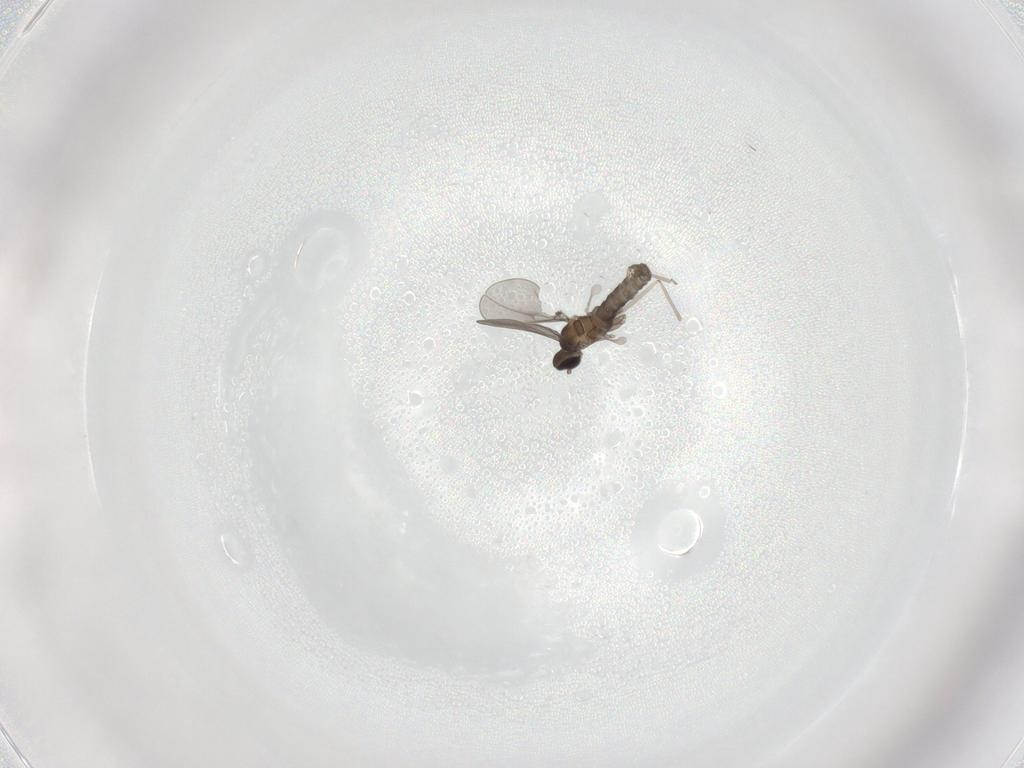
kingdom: Animalia
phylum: Arthropoda
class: Insecta
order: Diptera
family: Cecidomyiidae
